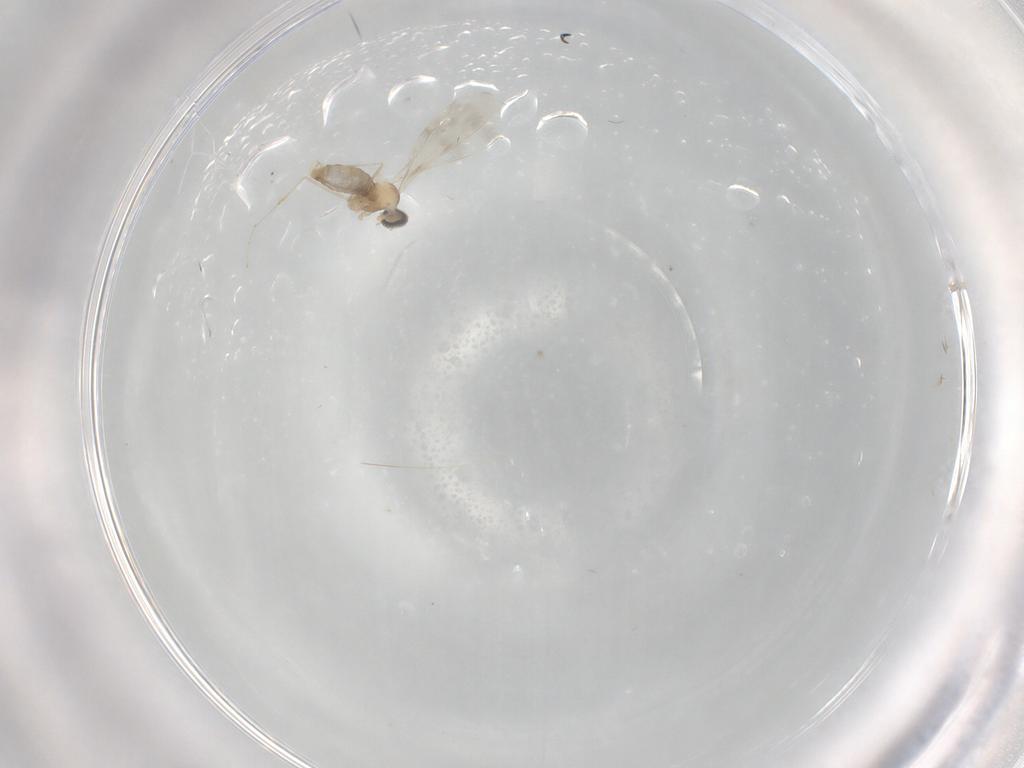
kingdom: Animalia
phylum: Arthropoda
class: Insecta
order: Diptera
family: Cecidomyiidae
